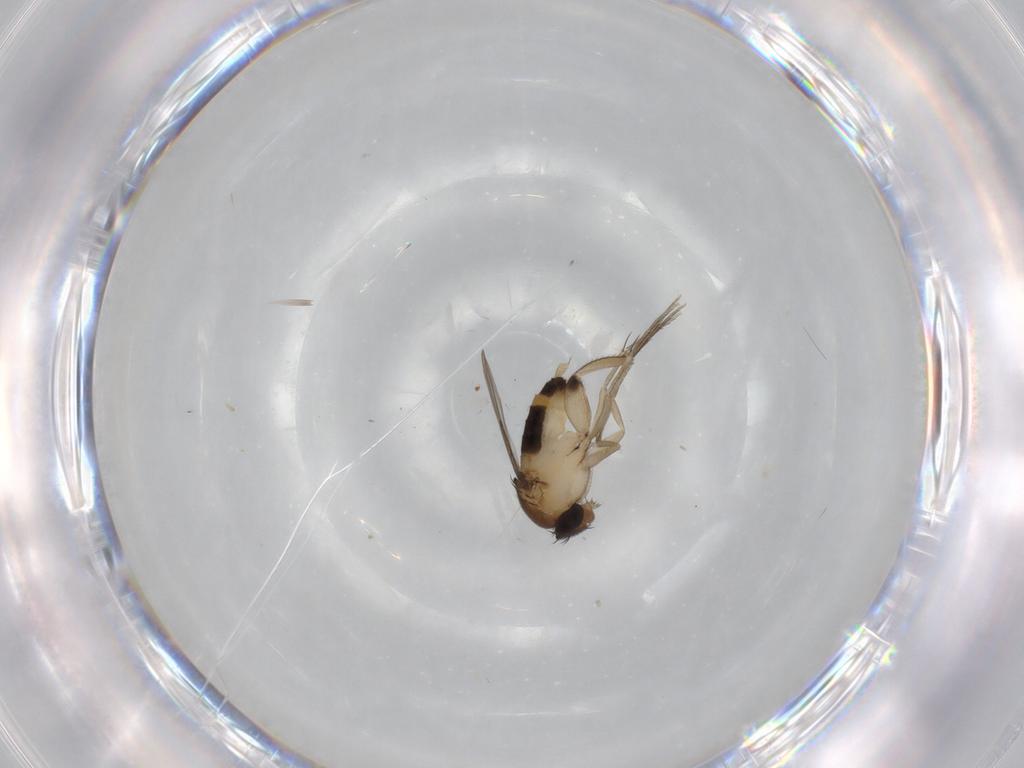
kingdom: Animalia
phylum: Arthropoda
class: Insecta
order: Diptera
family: Phoridae
